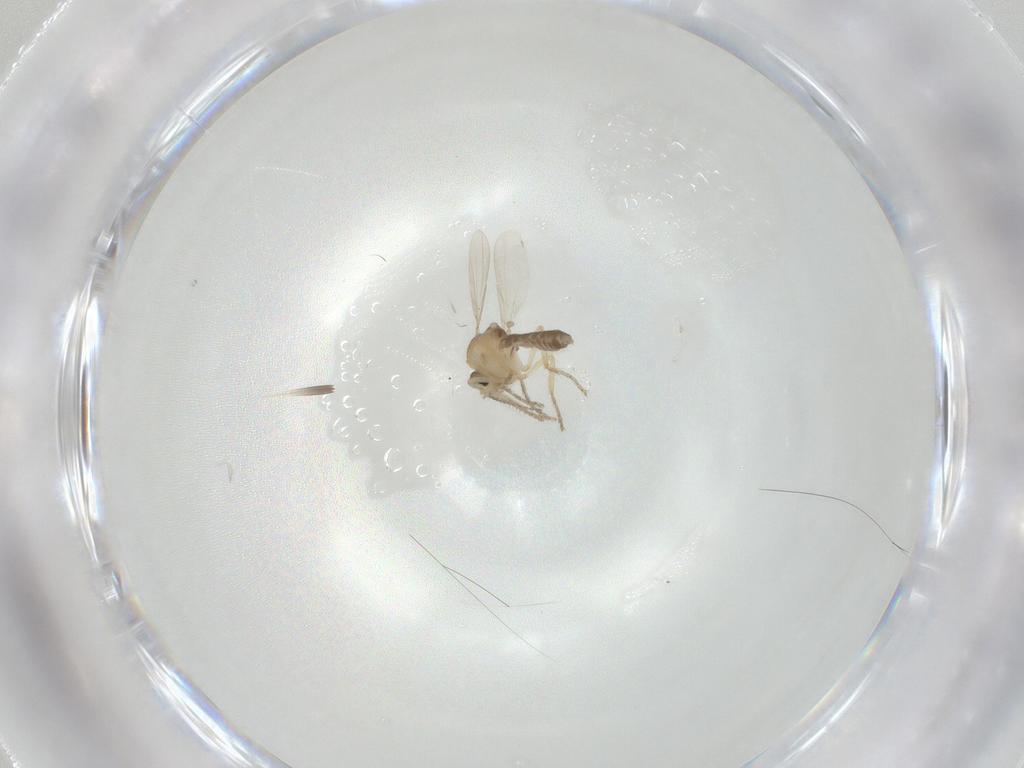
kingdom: Animalia
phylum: Arthropoda
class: Insecta
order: Diptera
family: Ceratopogonidae
